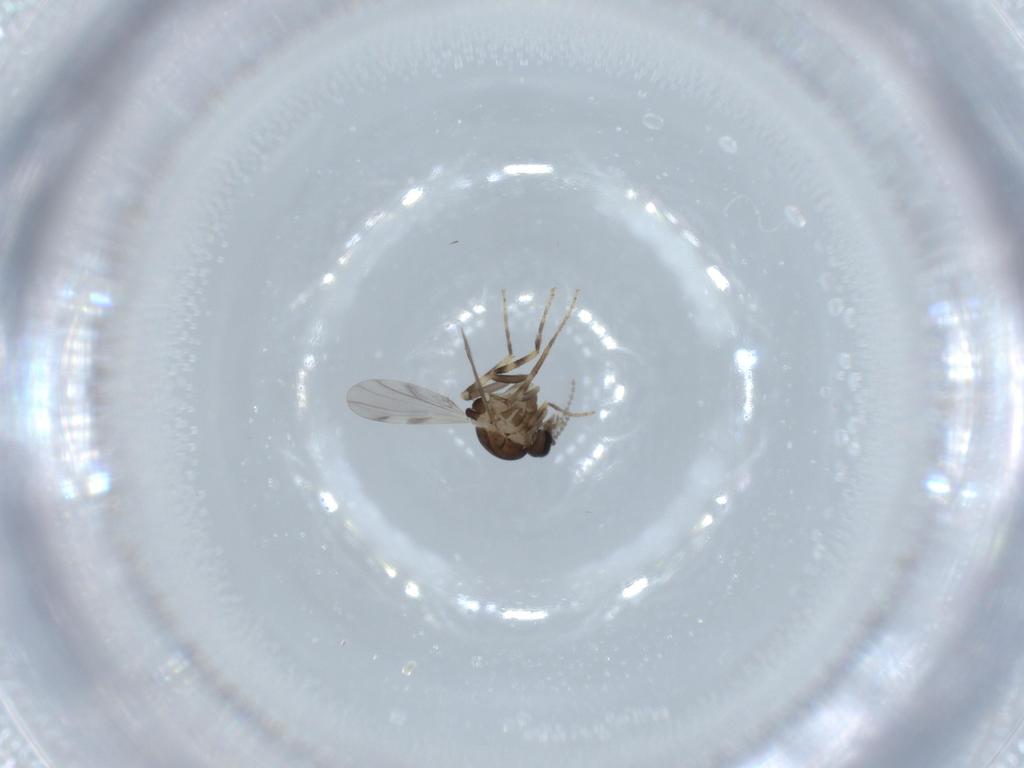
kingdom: Animalia
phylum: Arthropoda
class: Insecta
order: Diptera
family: Ceratopogonidae
